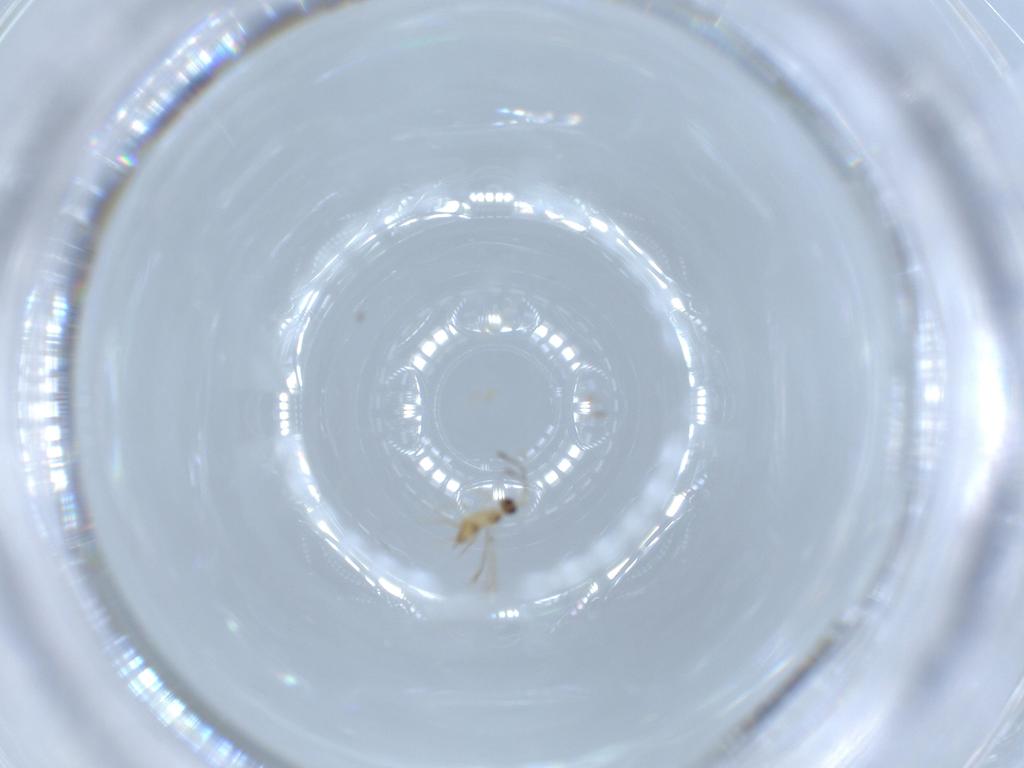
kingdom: Animalia
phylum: Arthropoda
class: Insecta
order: Hymenoptera
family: Mymaridae
